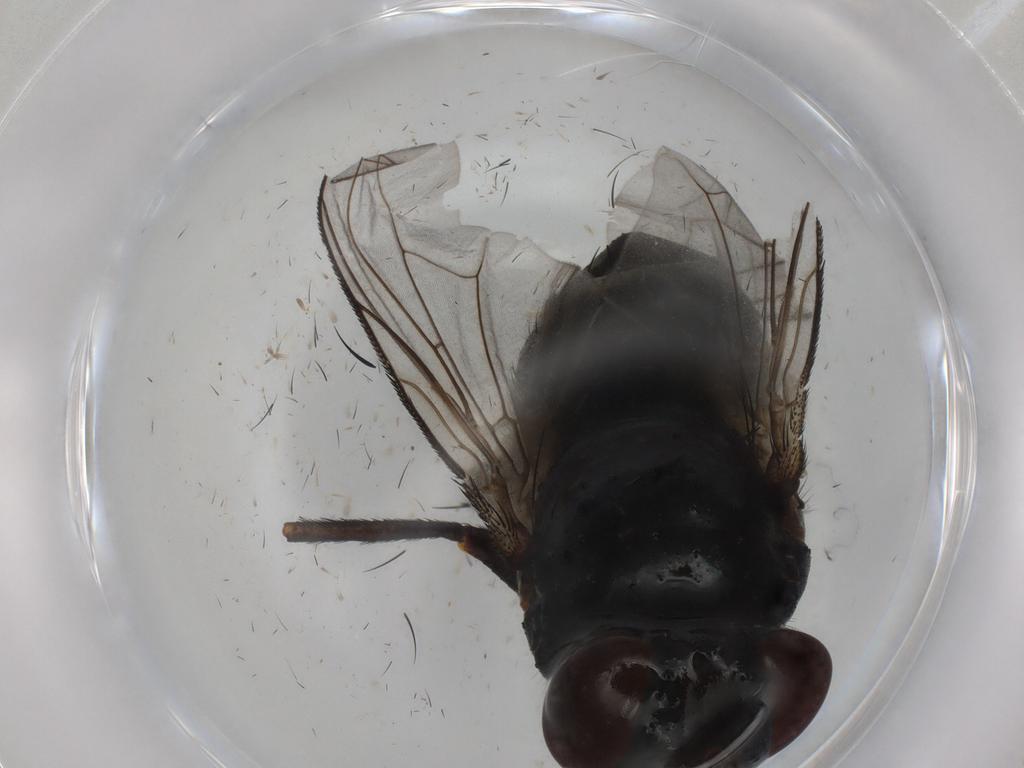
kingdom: Animalia
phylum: Arthropoda
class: Insecta
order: Diptera
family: Tachinidae
